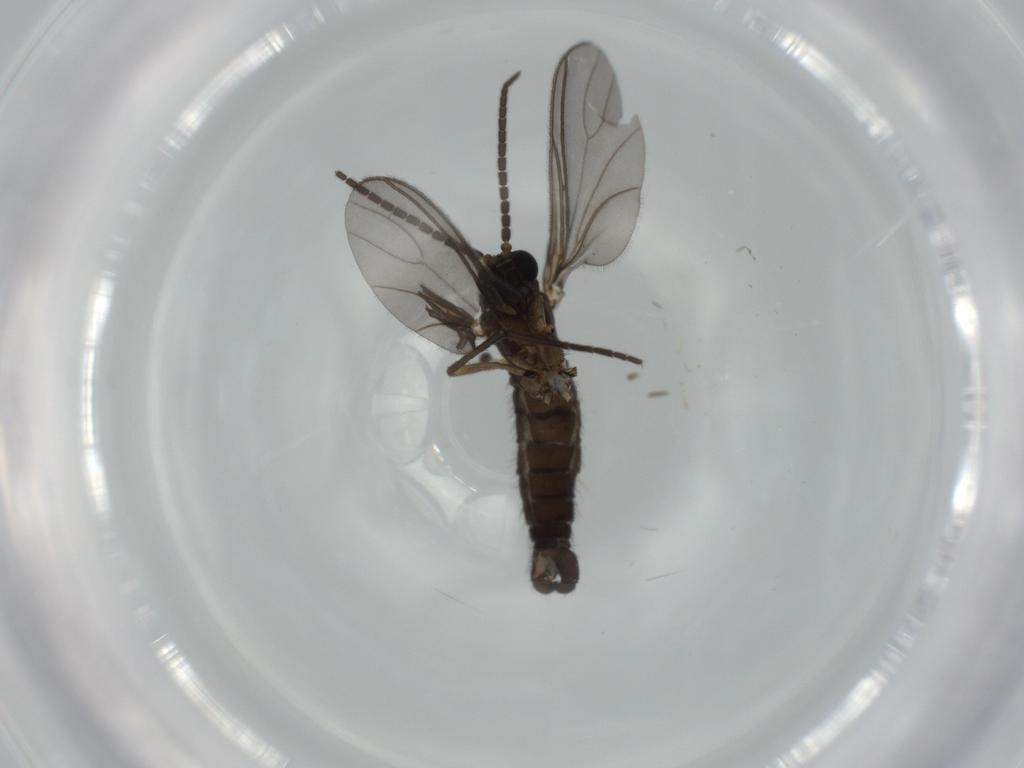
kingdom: Animalia
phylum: Arthropoda
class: Insecta
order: Diptera
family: Sciaridae
